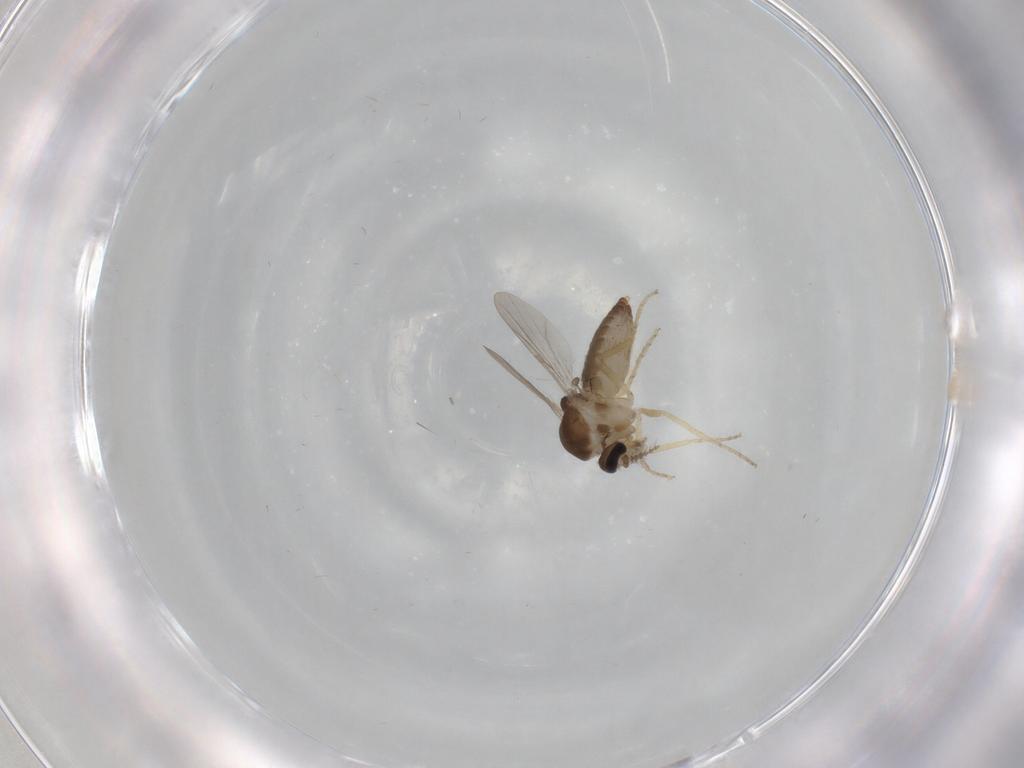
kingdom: Animalia
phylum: Arthropoda
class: Insecta
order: Diptera
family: Ceratopogonidae
